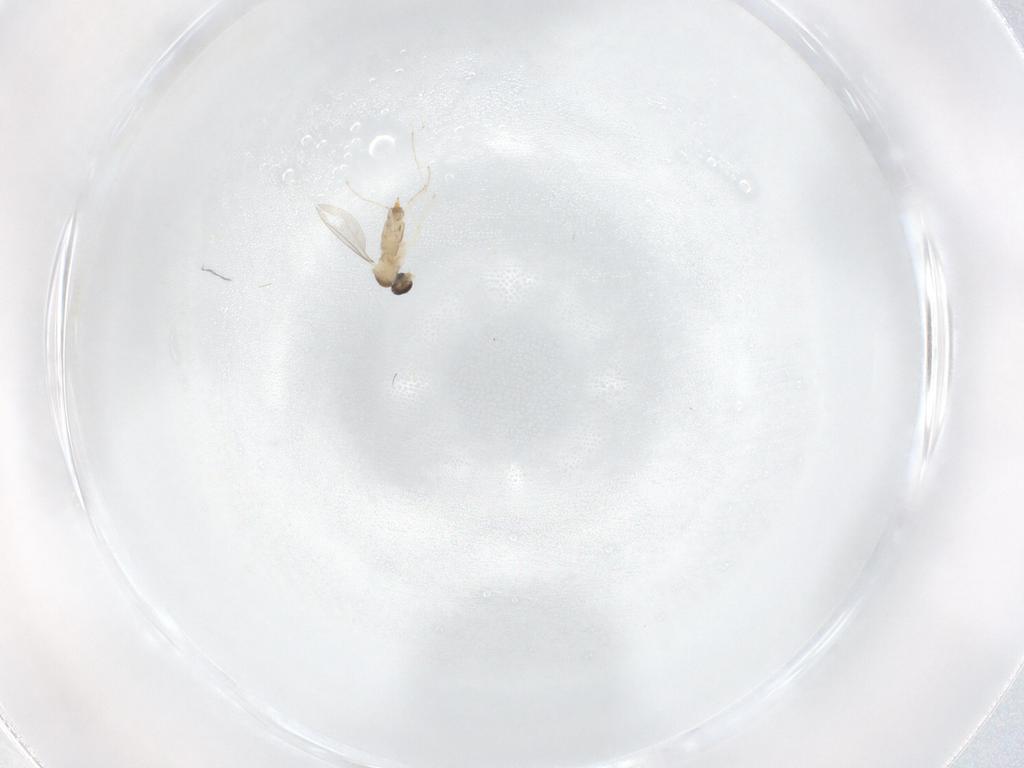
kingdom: Animalia
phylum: Arthropoda
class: Insecta
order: Diptera
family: Cecidomyiidae
